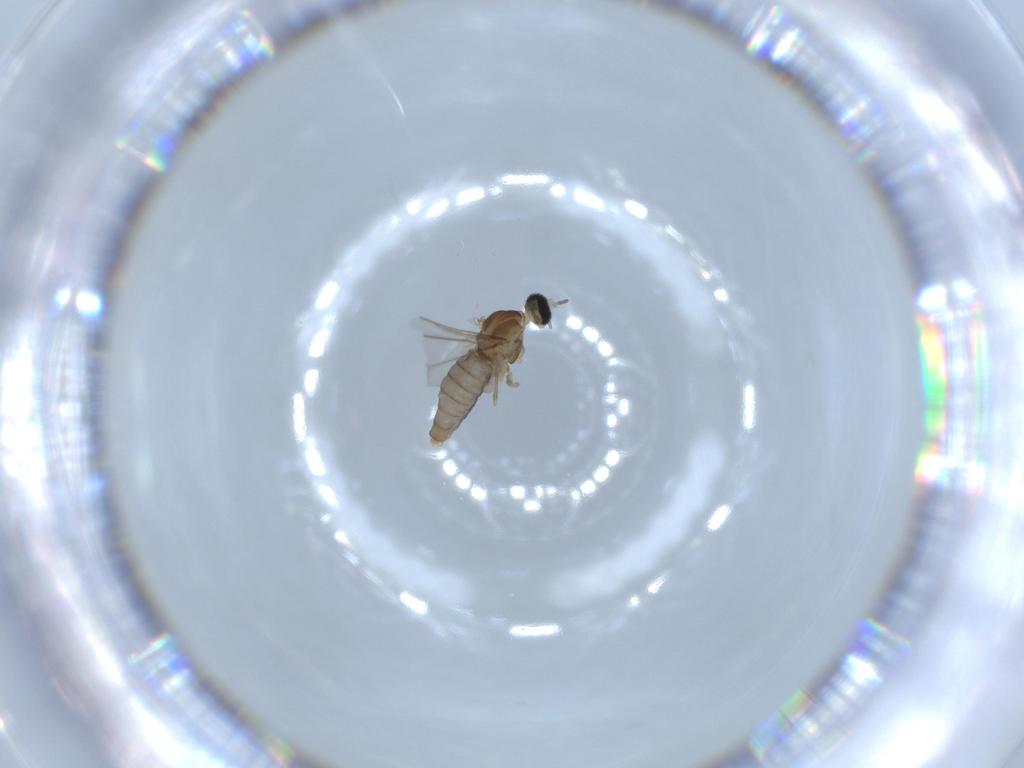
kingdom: Animalia
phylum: Arthropoda
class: Insecta
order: Diptera
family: Cecidomyiidae
